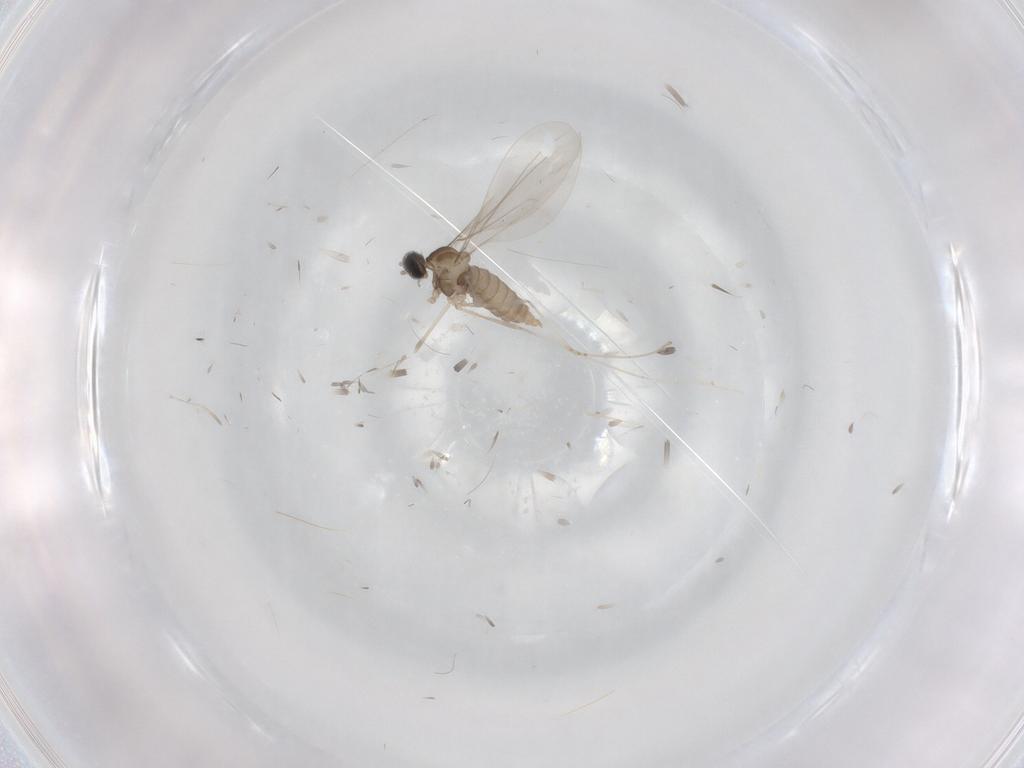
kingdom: Animalia
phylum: Arthropoda
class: Insecta
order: Diptera
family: Cecidomyiidae
